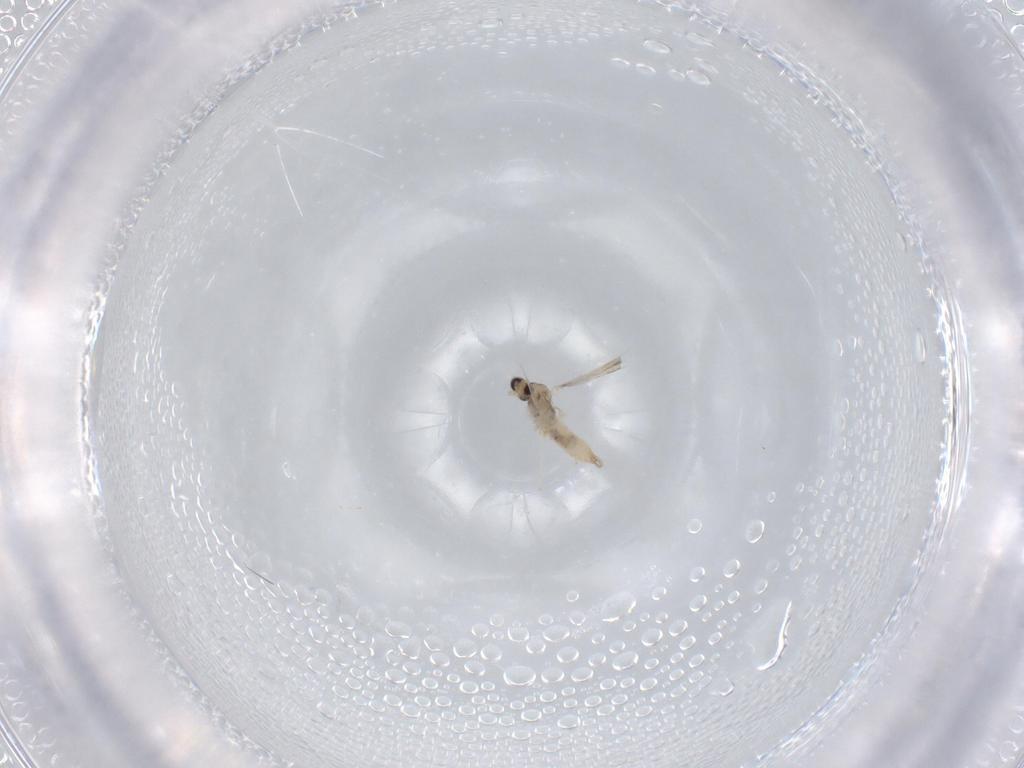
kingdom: Animalia
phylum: Arthropoda
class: Insecta
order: Diptera
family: Cecidomyiidae
